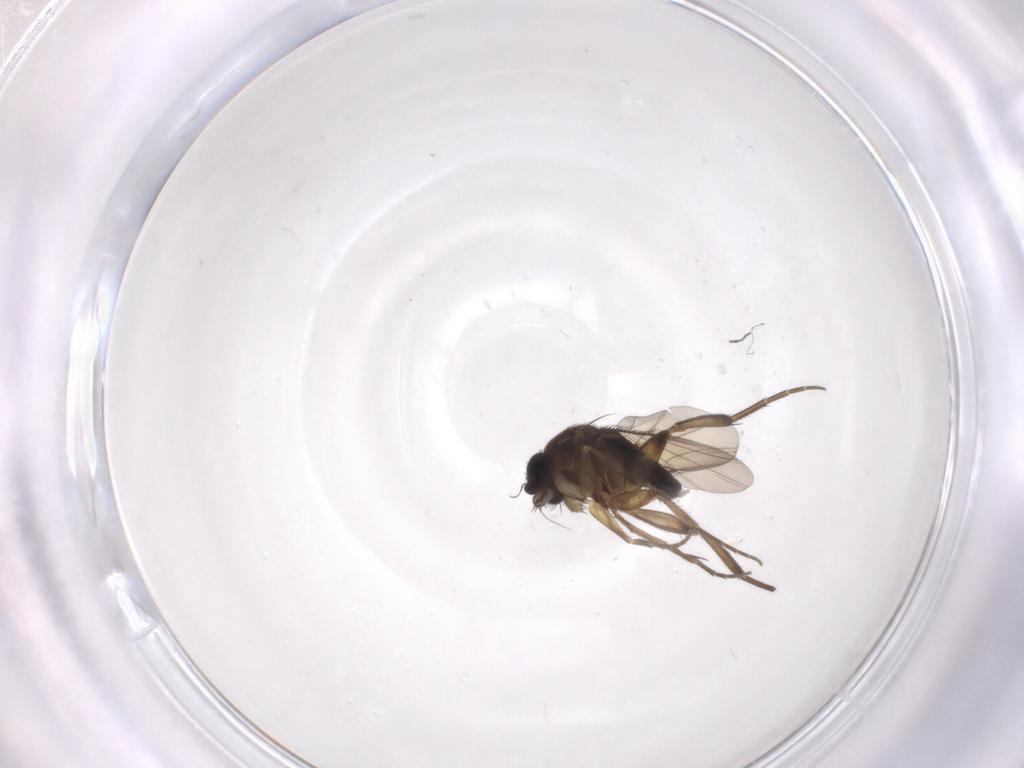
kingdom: Animalia
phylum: Arthropoda
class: Insecta
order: Diptera
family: Phoridae
